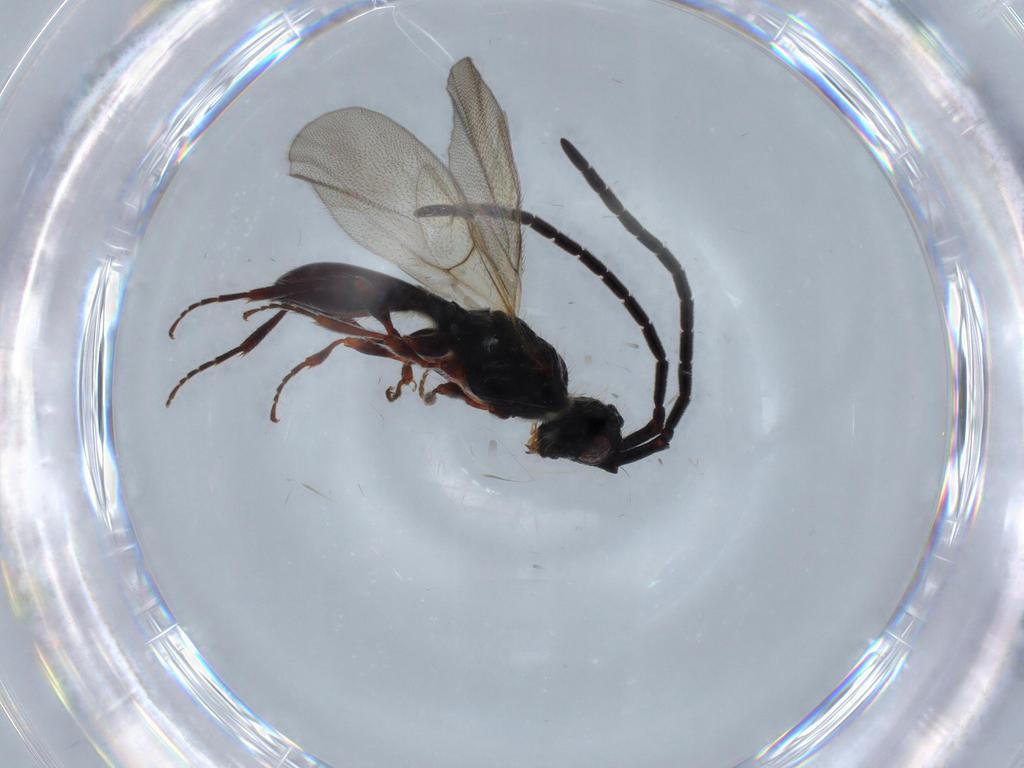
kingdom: Animalia
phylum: Arthropoda
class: Insecta
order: Hymenoptera
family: Diapriidae
